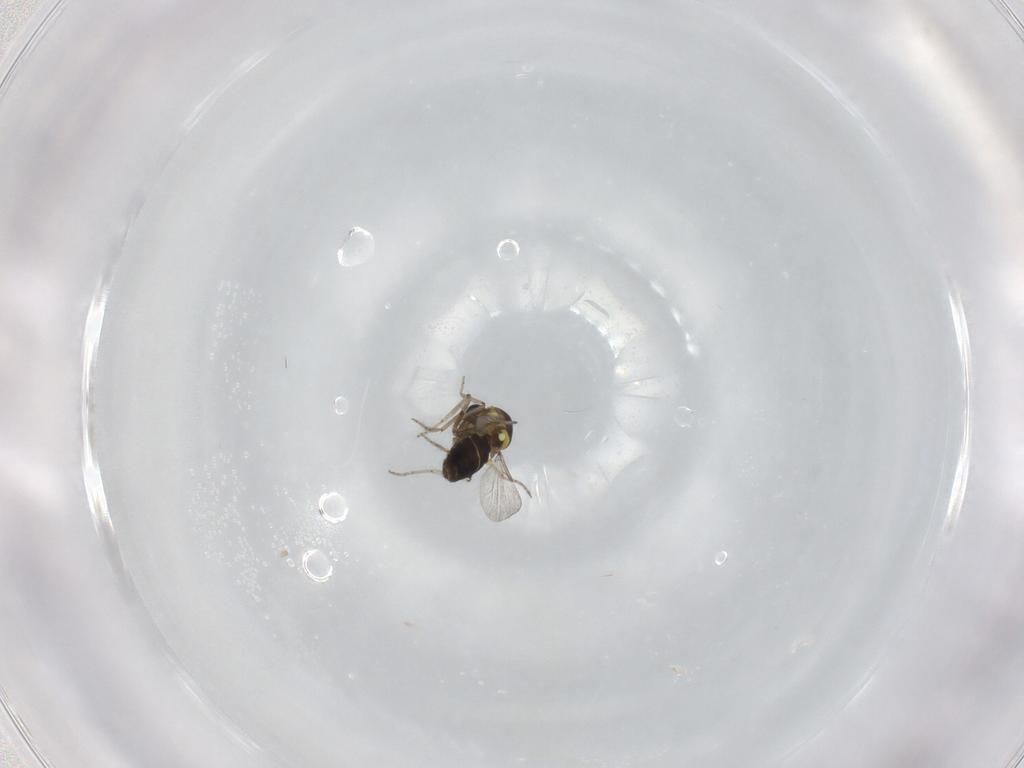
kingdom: Animalia
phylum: Arthropoda
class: Insecta
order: Diptera
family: Ceratopogonidae
